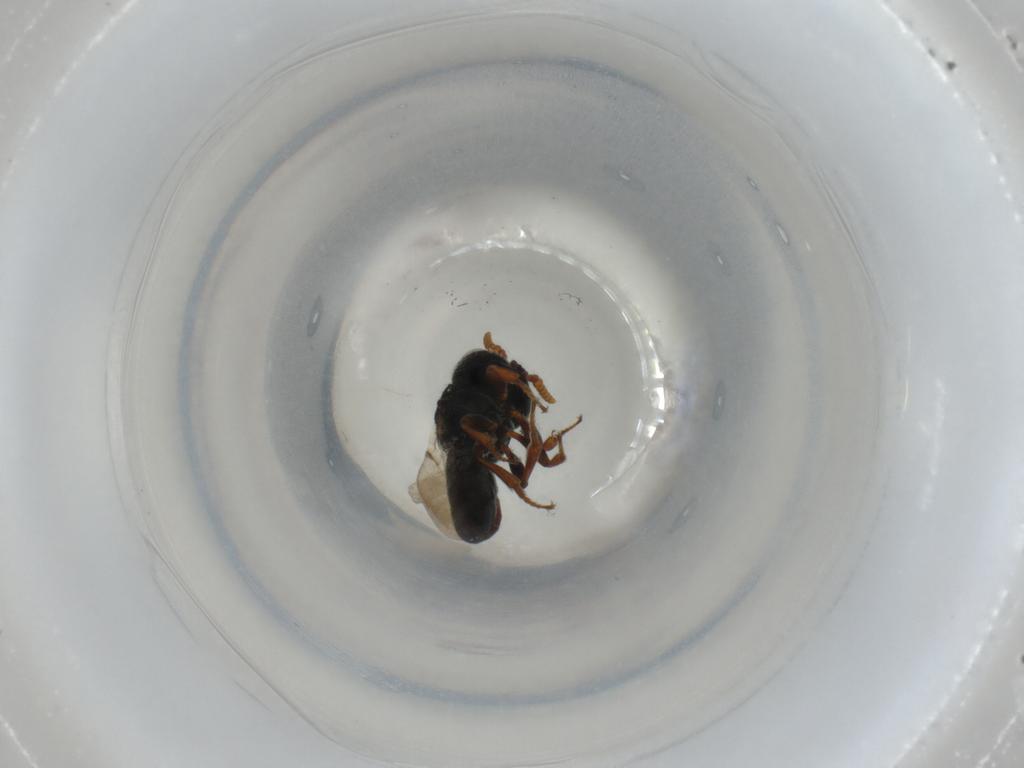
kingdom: Animalia
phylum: Arthropoda
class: Insecta
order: Hymenoptera
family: Scelionidae
